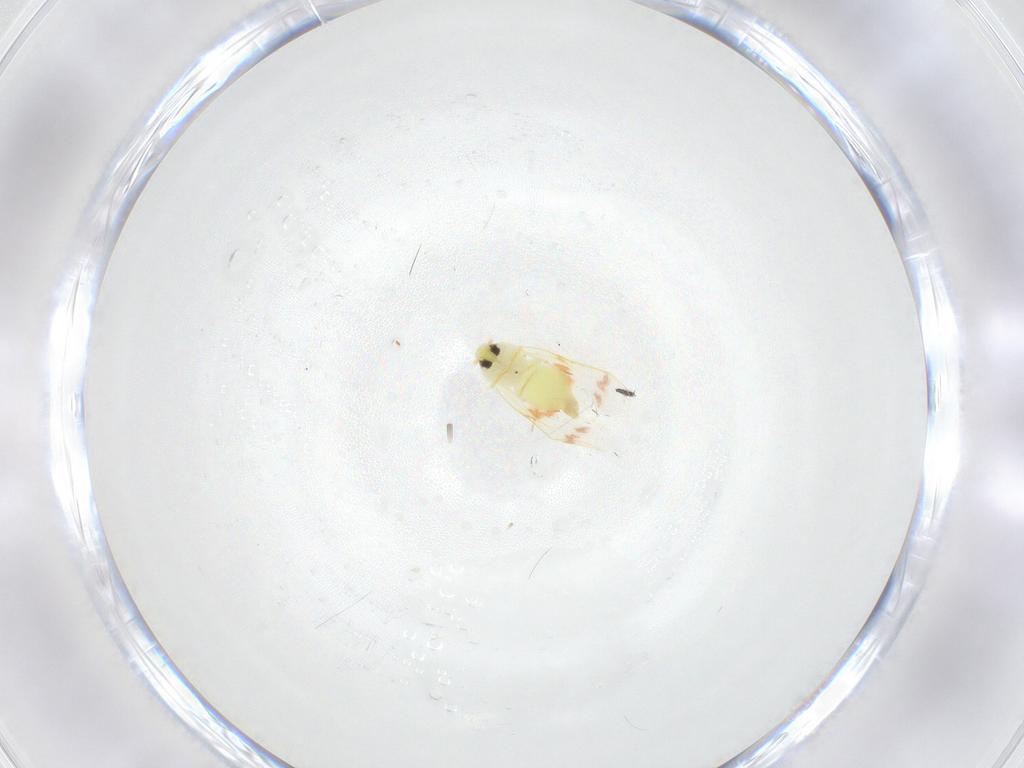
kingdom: Animalia
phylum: Arthropoda
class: Insecta
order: Hemiptera
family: Aleyrodidae
